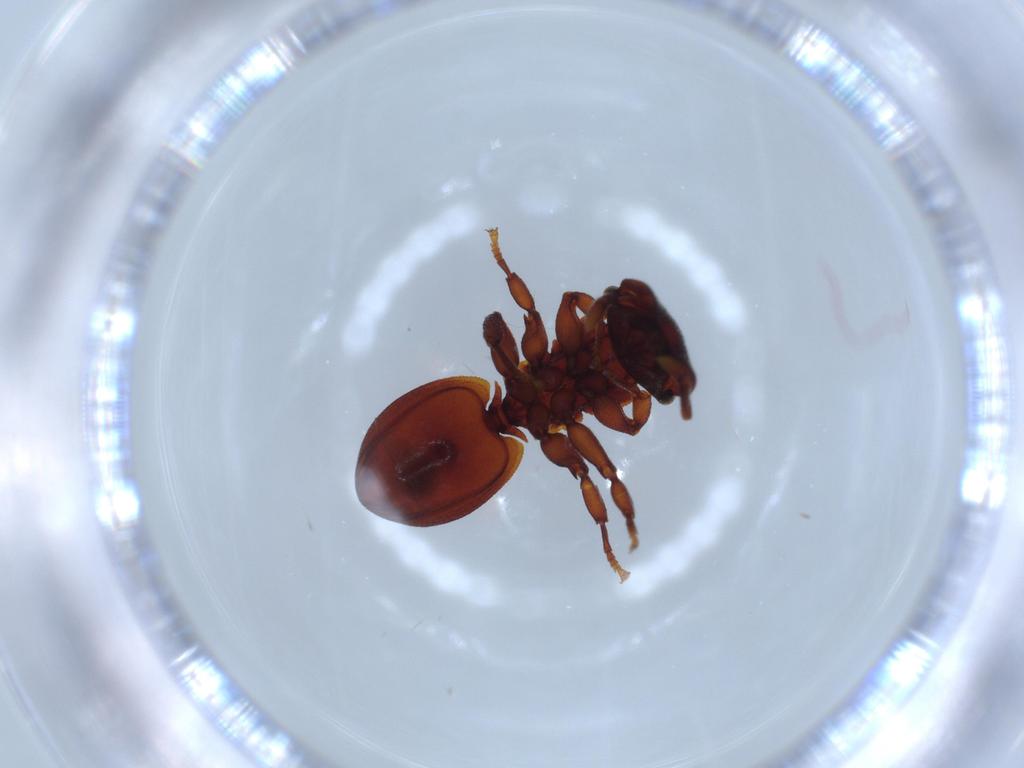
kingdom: Animalia
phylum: Arthropoda
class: Insecta
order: Hymenoptera
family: Formicidae
